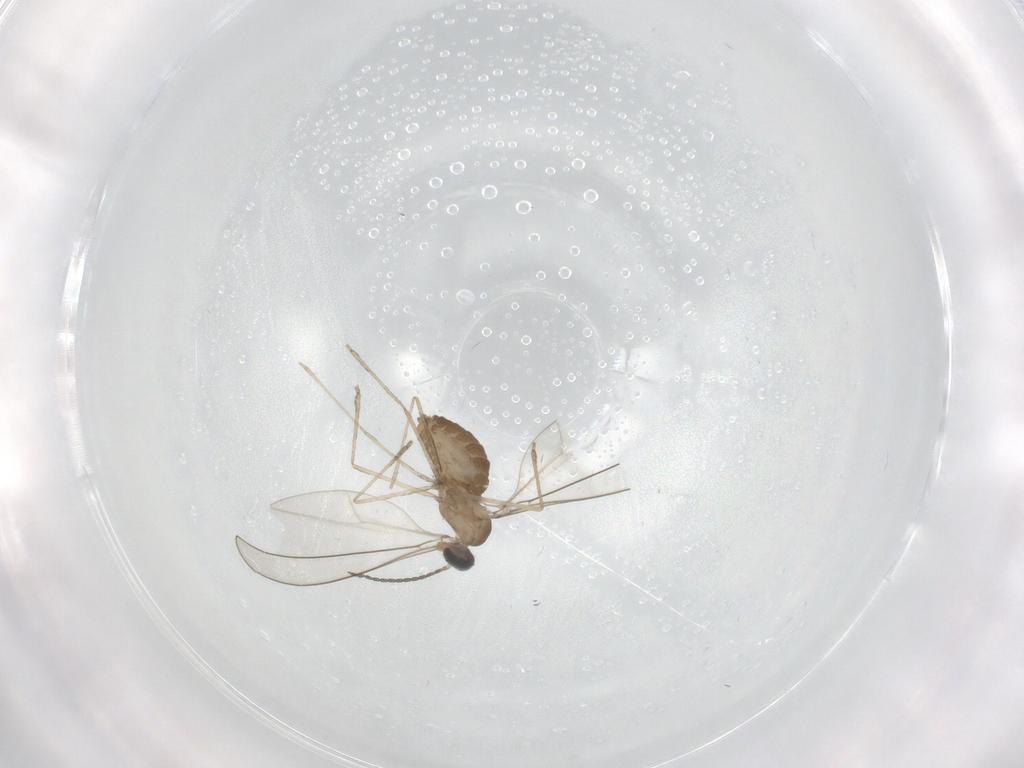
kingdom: Animalia
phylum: Arthropoda
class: Insecta
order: Diptera
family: Cecidomyiidae
